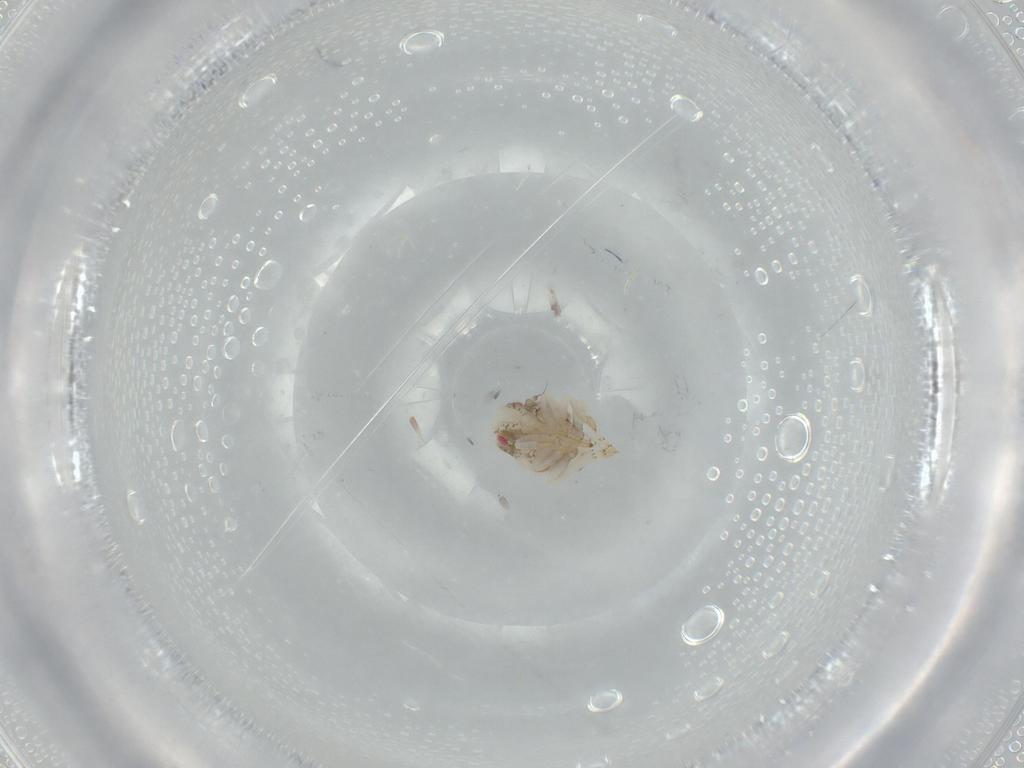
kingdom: Animalia
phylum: Arthropoda
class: Insecta
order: Hemiptera
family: Acanaloniidae
